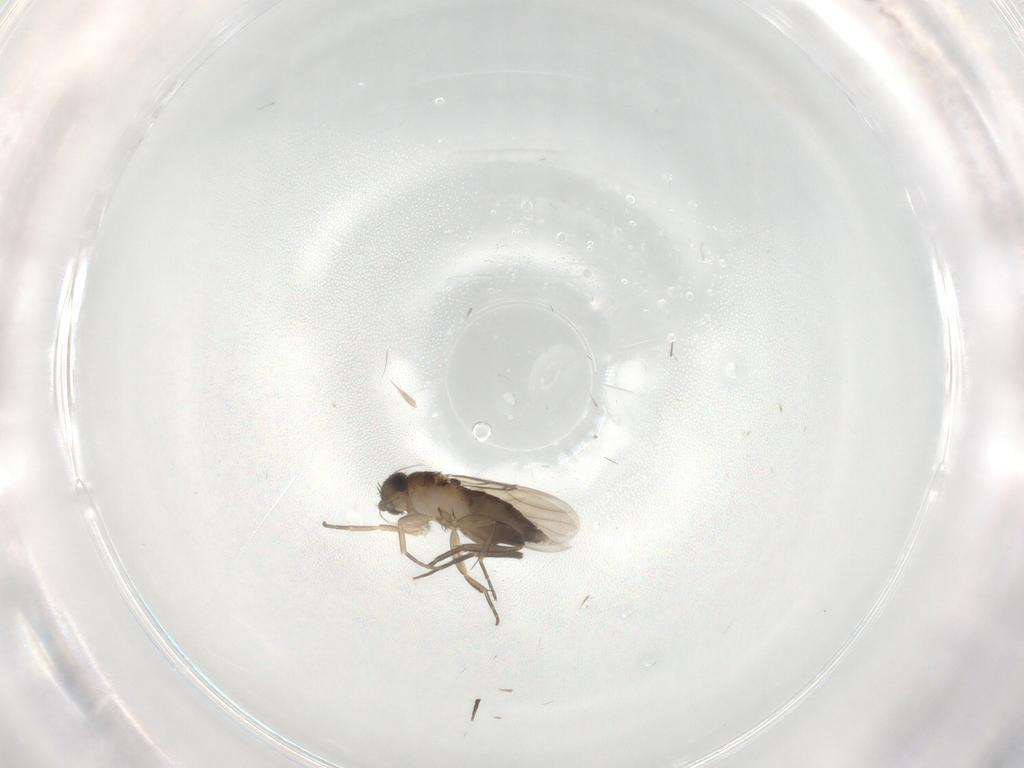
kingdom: Animalia
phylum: Arthropoda
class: Insecta
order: Diptera
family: Phoridae
